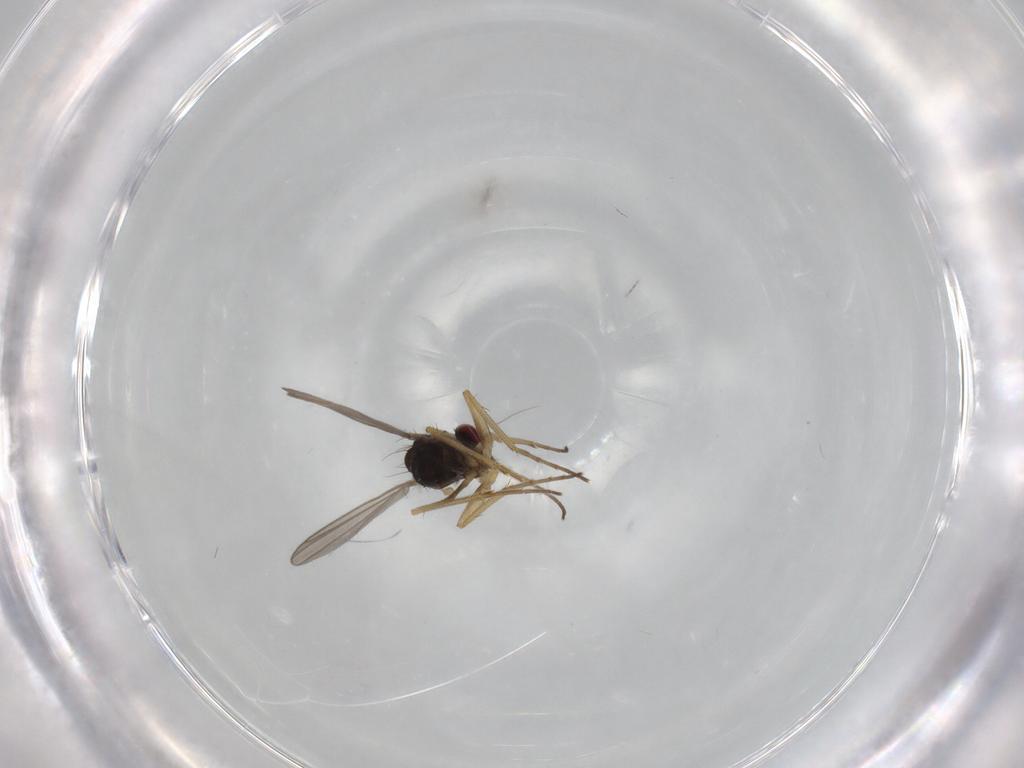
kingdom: Animalia
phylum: Arthropoda
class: Insecta
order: Diptera
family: Dolichopodidae
